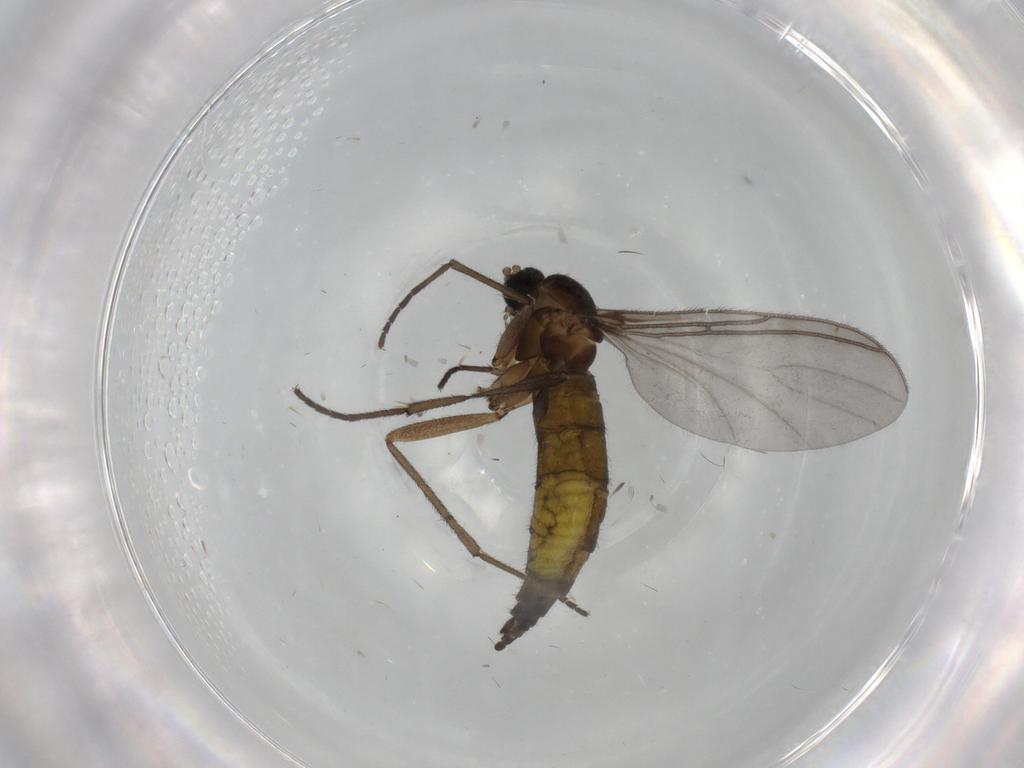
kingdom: Animalia
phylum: Arthropoda
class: Insecta
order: Diptera
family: Sciaridae
